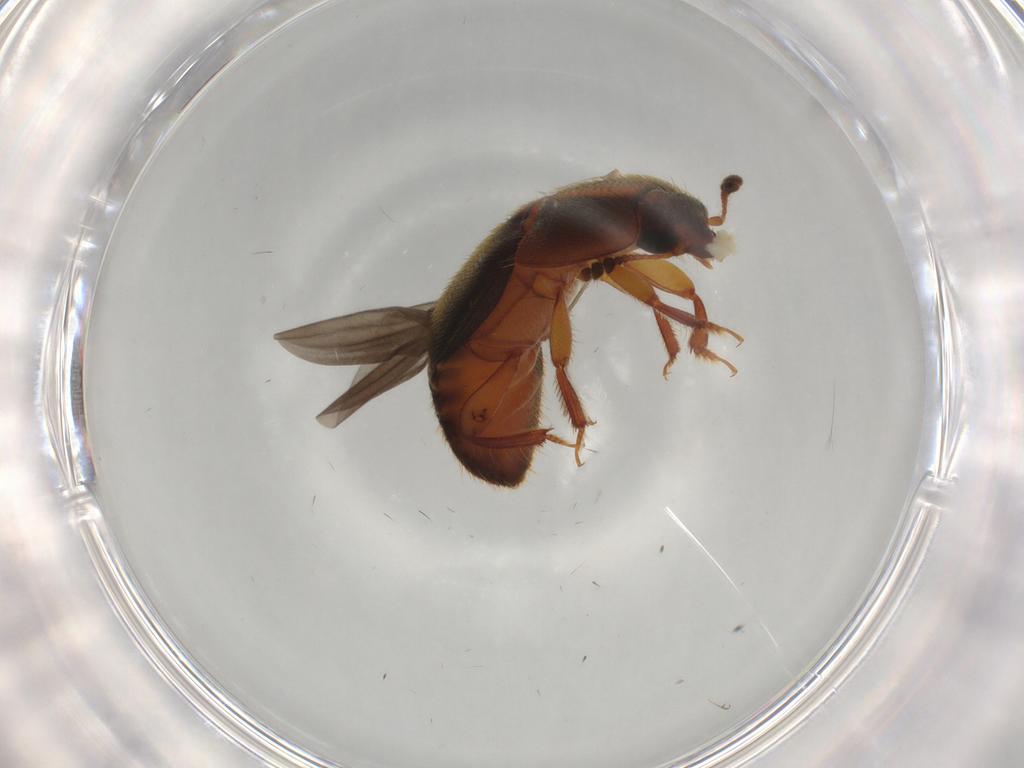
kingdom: Animalia
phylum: Arthropoda
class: Insecta
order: Coleoptera
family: Nitidulidae
